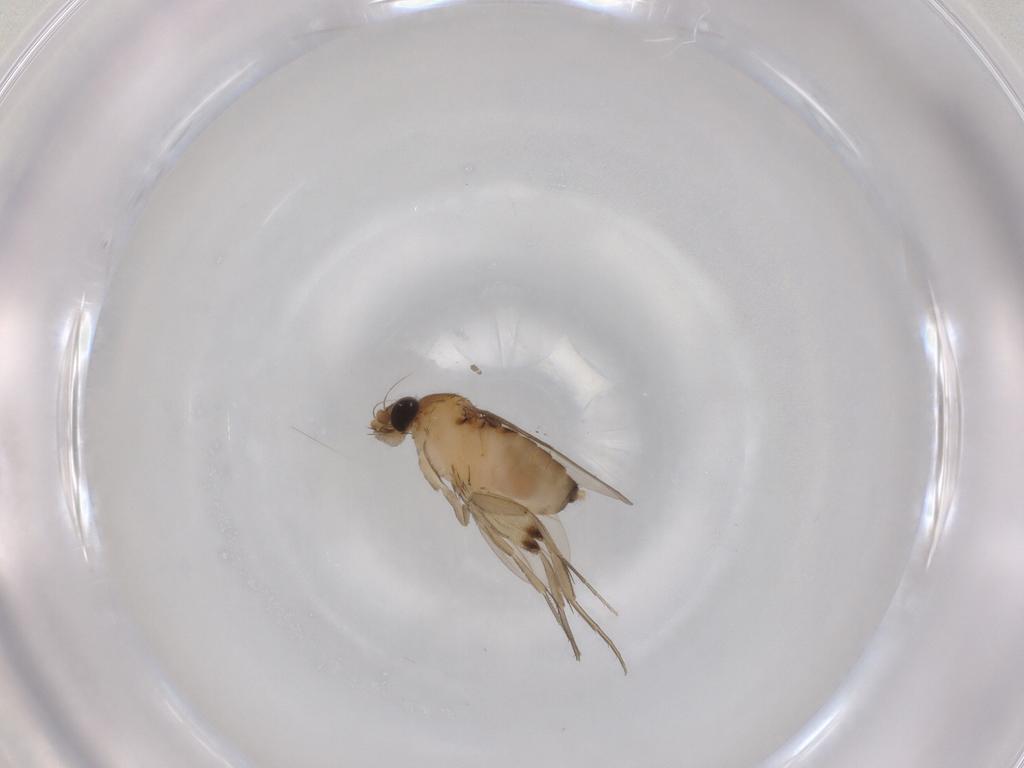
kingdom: Animalia
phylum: Arthropoda
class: Insecta
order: Diptera
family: Phoridae
